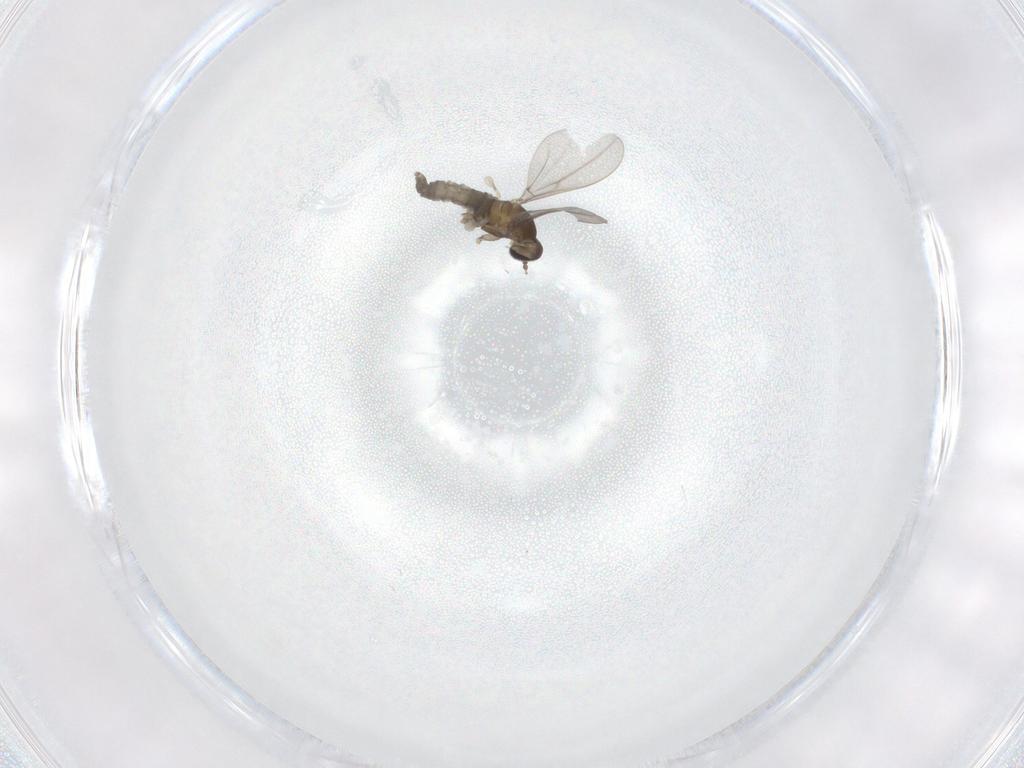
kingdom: Animalia
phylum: Arthropoda
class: Insecta
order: Diptera
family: Cecidomyiidae
